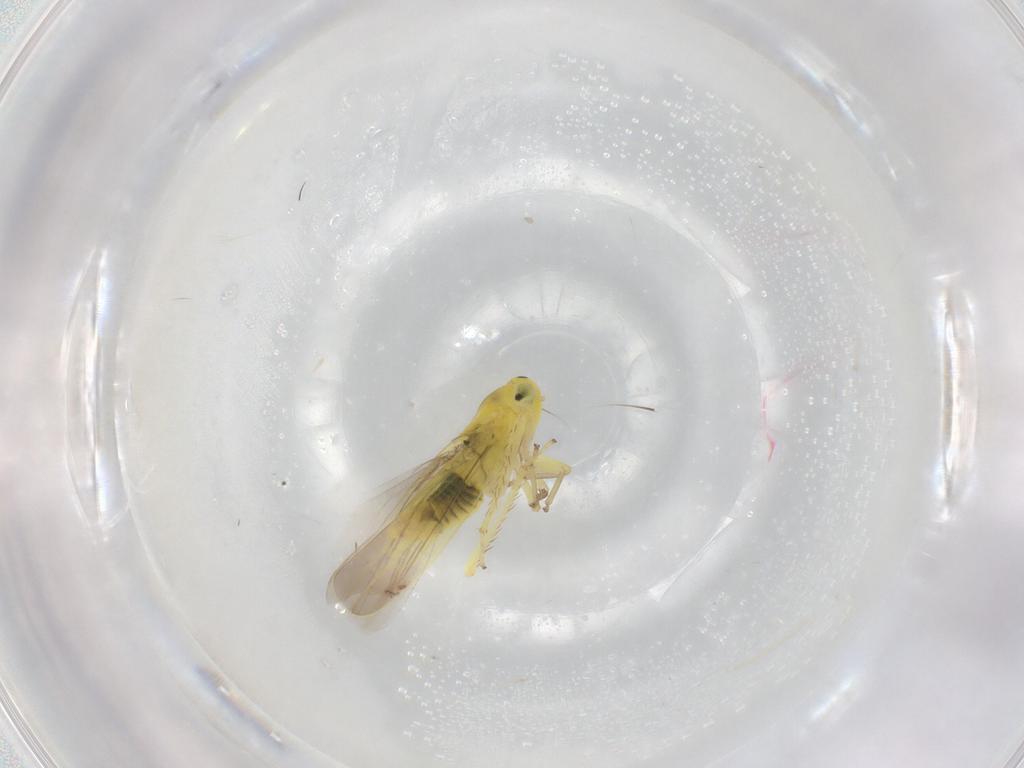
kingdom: Animalia
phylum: Arthropoda
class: Insecta
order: Hemiptera
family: Cicadellidae
